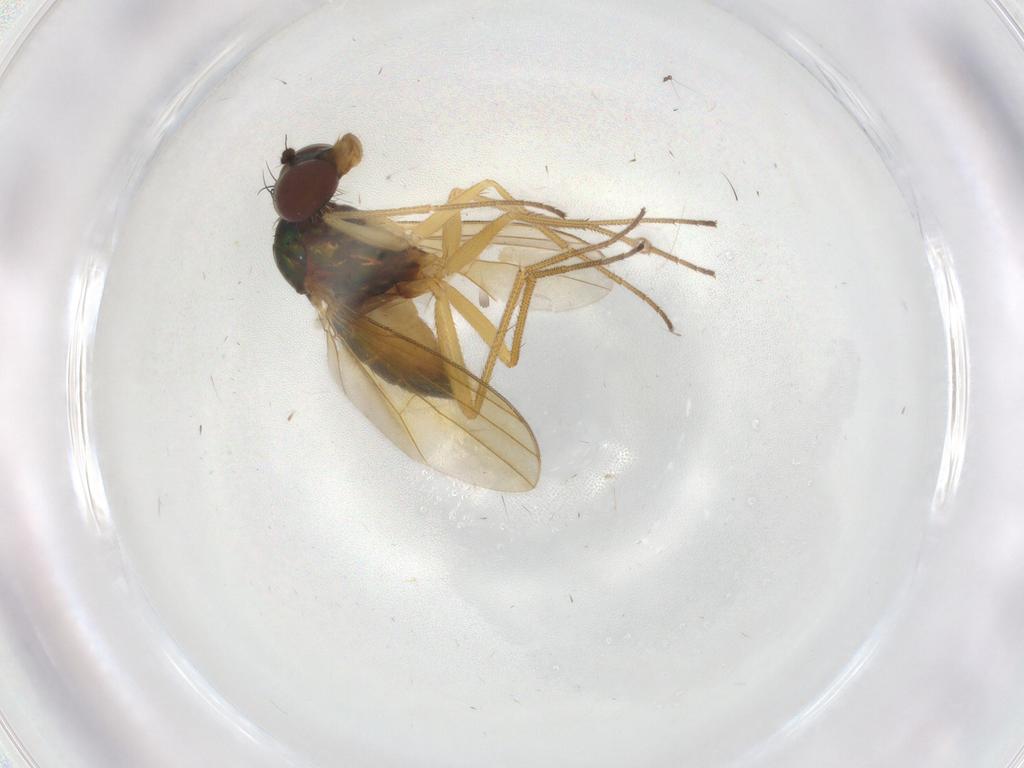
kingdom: Animalia
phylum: Arthropoda
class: Insecta
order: Diptera
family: Dolichopodidae
